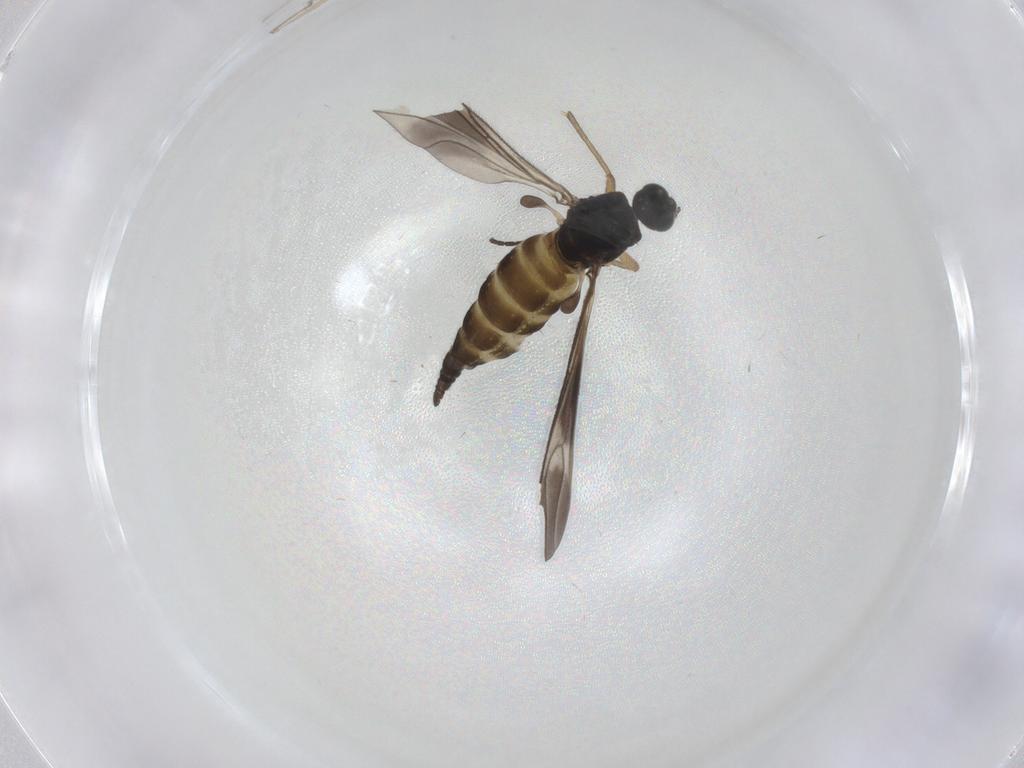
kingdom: Animalia
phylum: Arthropoda
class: Insecta
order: Diptera
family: Sciaridae
